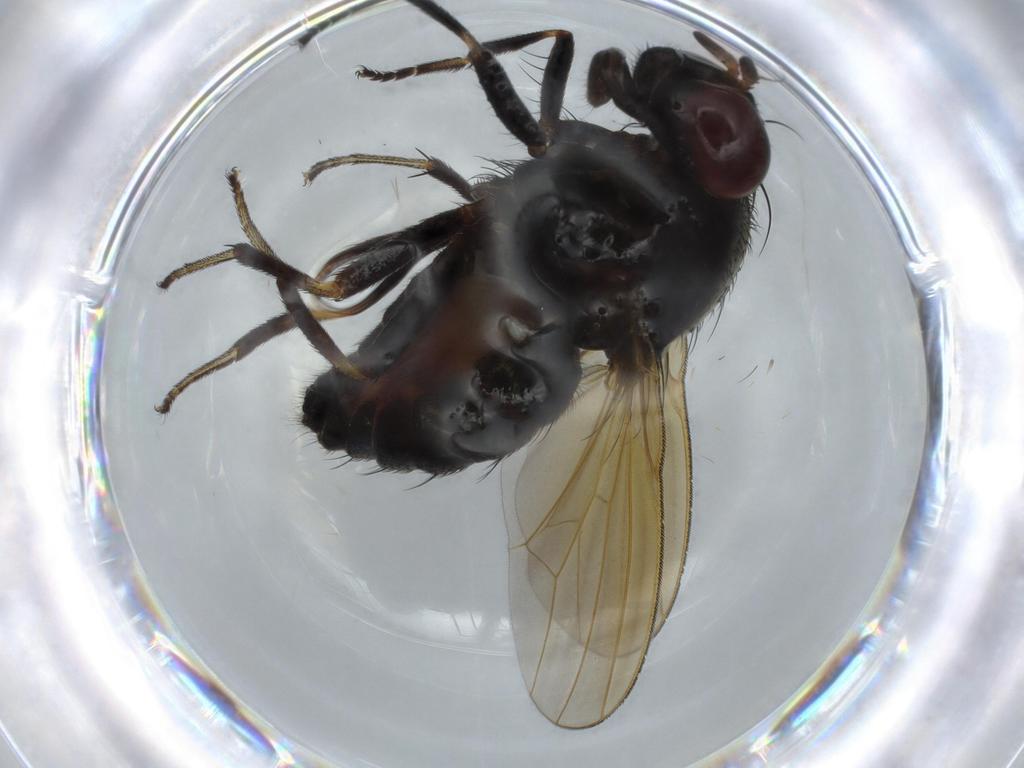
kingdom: Animalia
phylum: Arthropoda
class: Insecta
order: Diptera
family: Lauxaniidae
